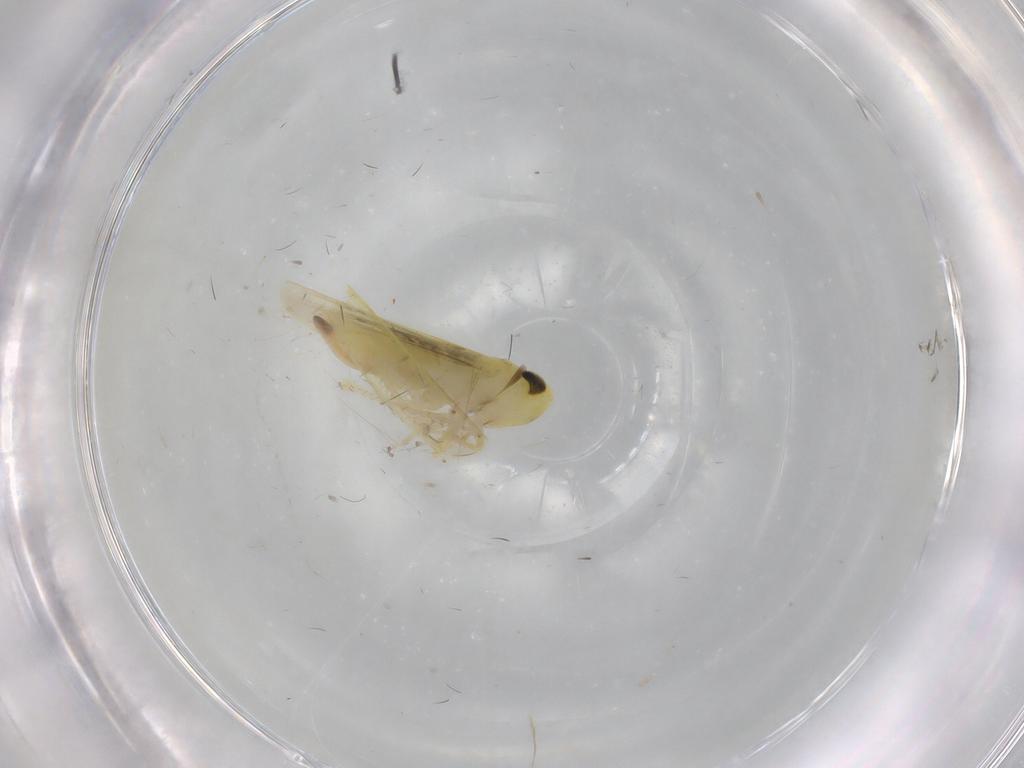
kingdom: Animalia
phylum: Arthropoda
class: Insecta
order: Hemiptera
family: Cicadellidae
